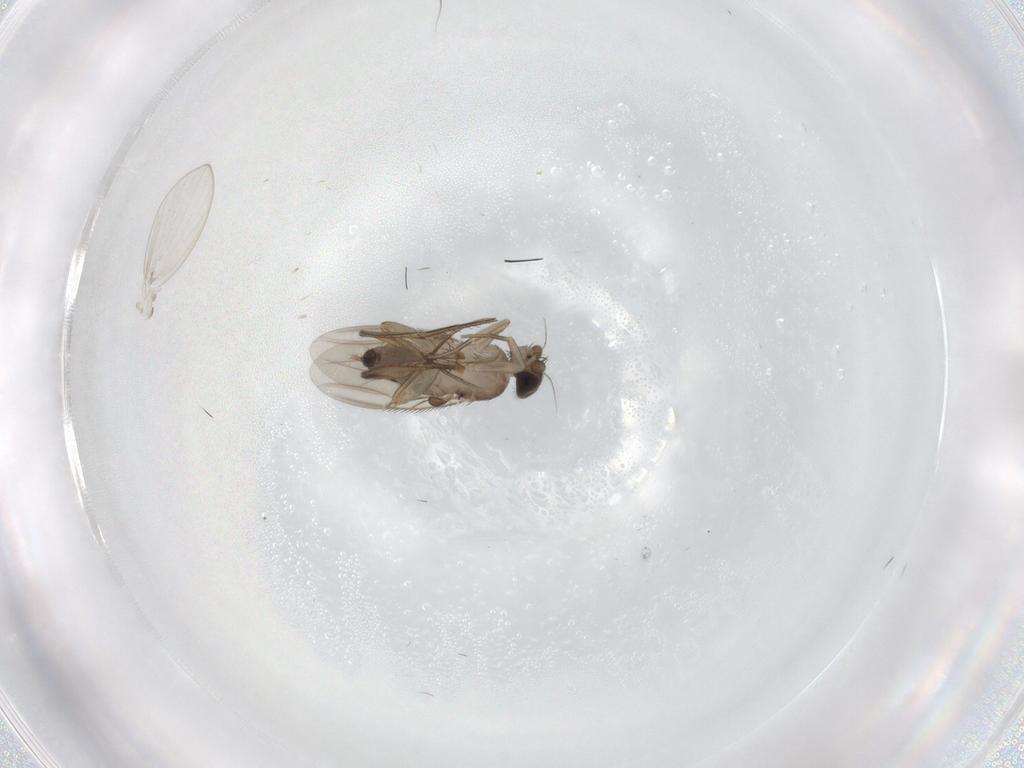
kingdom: Animalia
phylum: Arthropoda
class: Insecta
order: Diptera
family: Phoridae
